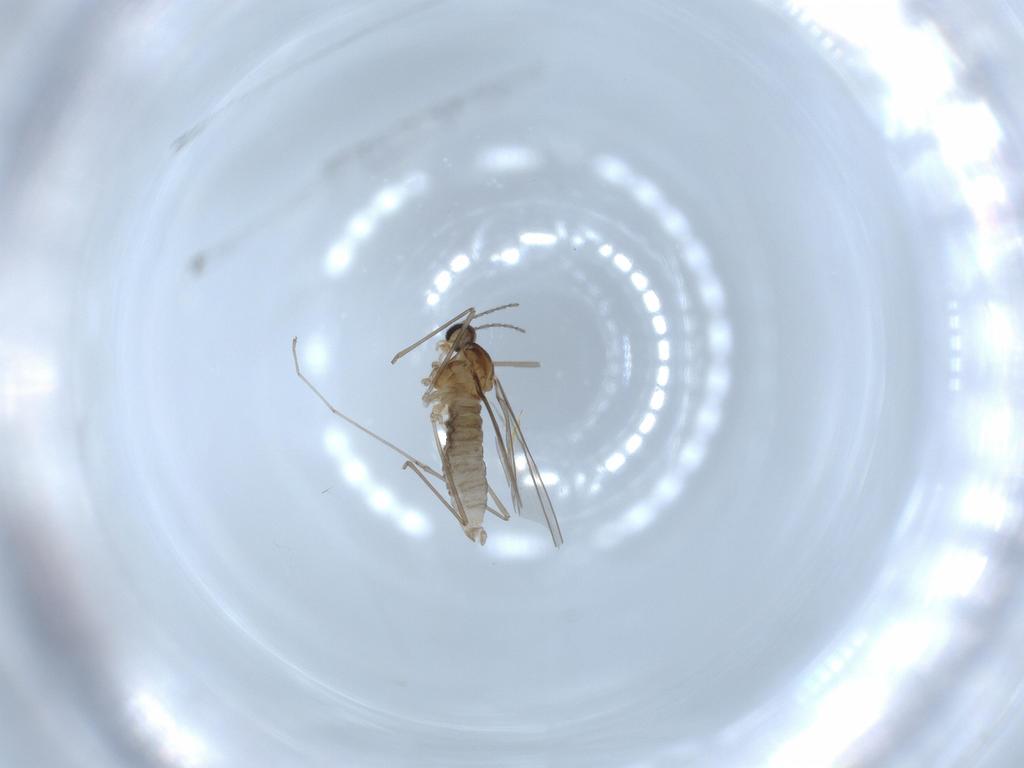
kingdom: Animalia
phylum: Arthropoda
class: Insecta
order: Diptera
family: Cecidomyiidae
